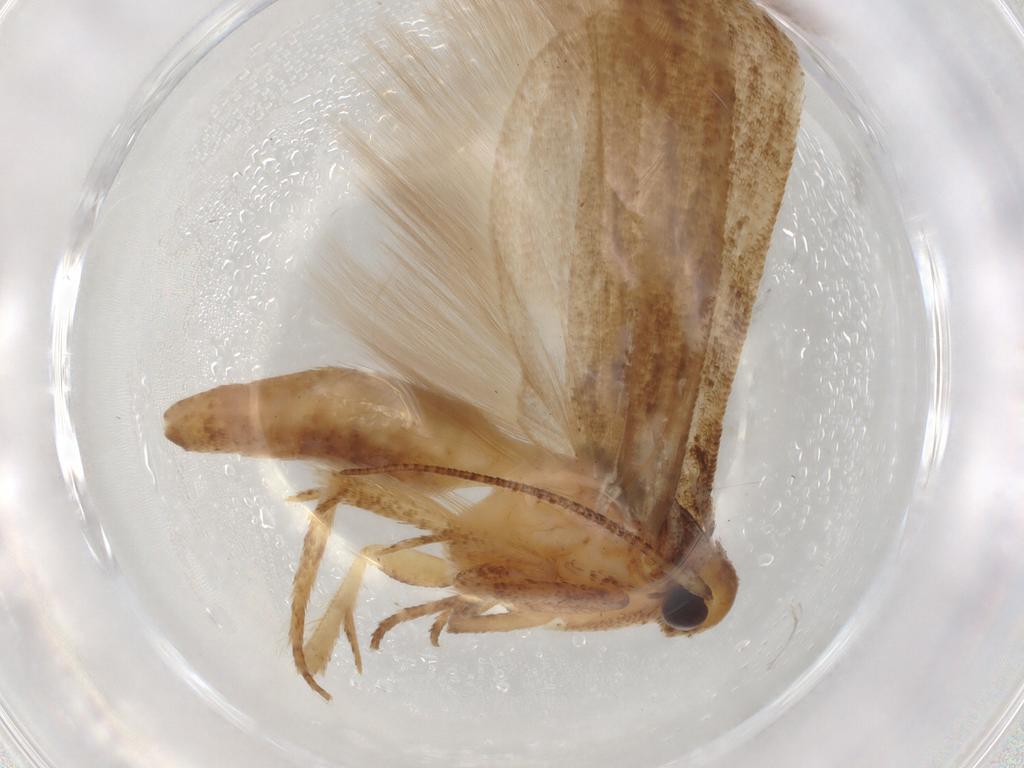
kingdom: Animalia
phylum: Arthropoda
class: Insecta
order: Lepidoptera
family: Gelechiidae
